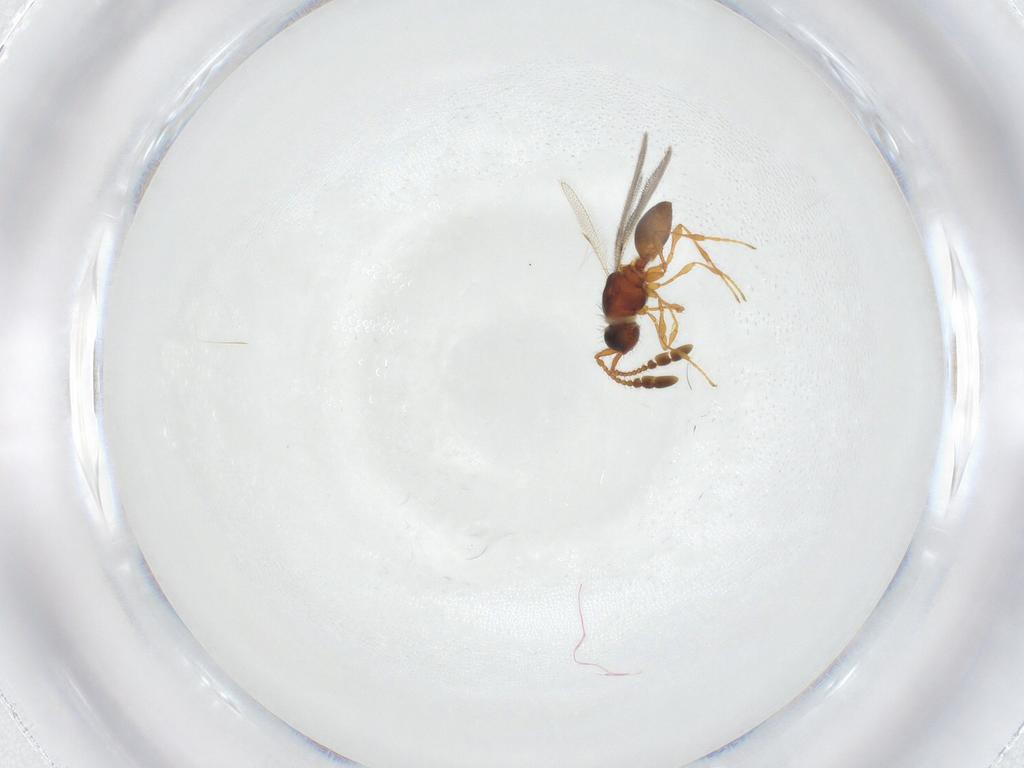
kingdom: Animalia
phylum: Arthropoda
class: Insecta
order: Hymenoptera
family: Diapriidae
